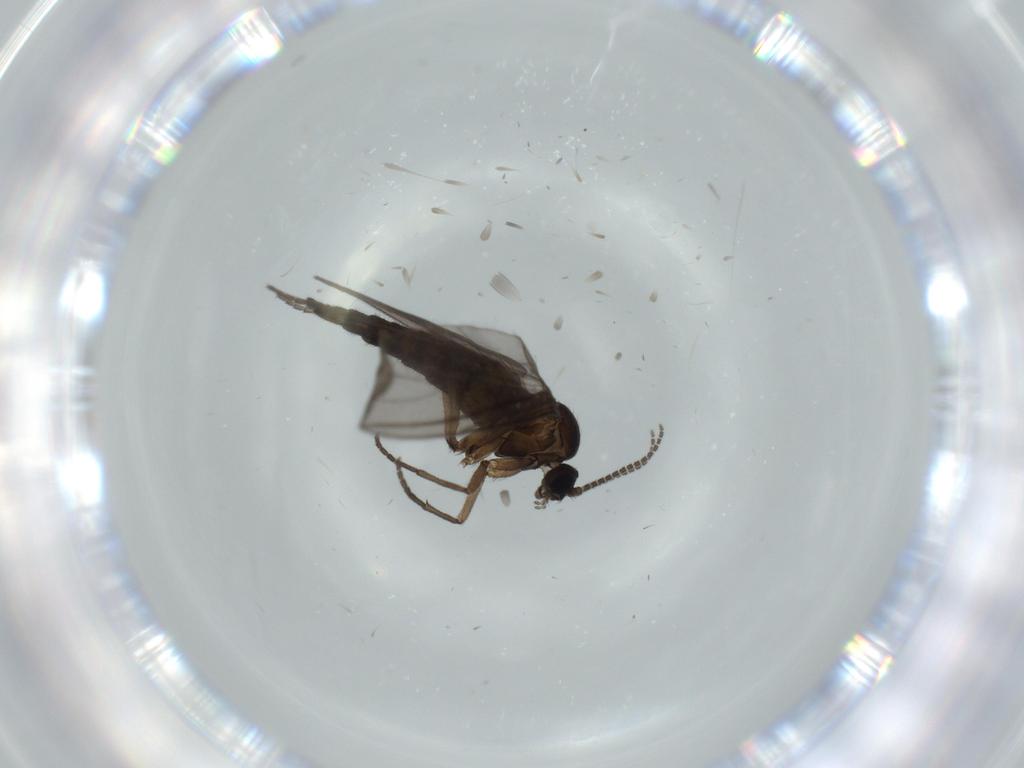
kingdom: Animalia
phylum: Arthropoda
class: Insecta
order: Diptera
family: Sciaridae
